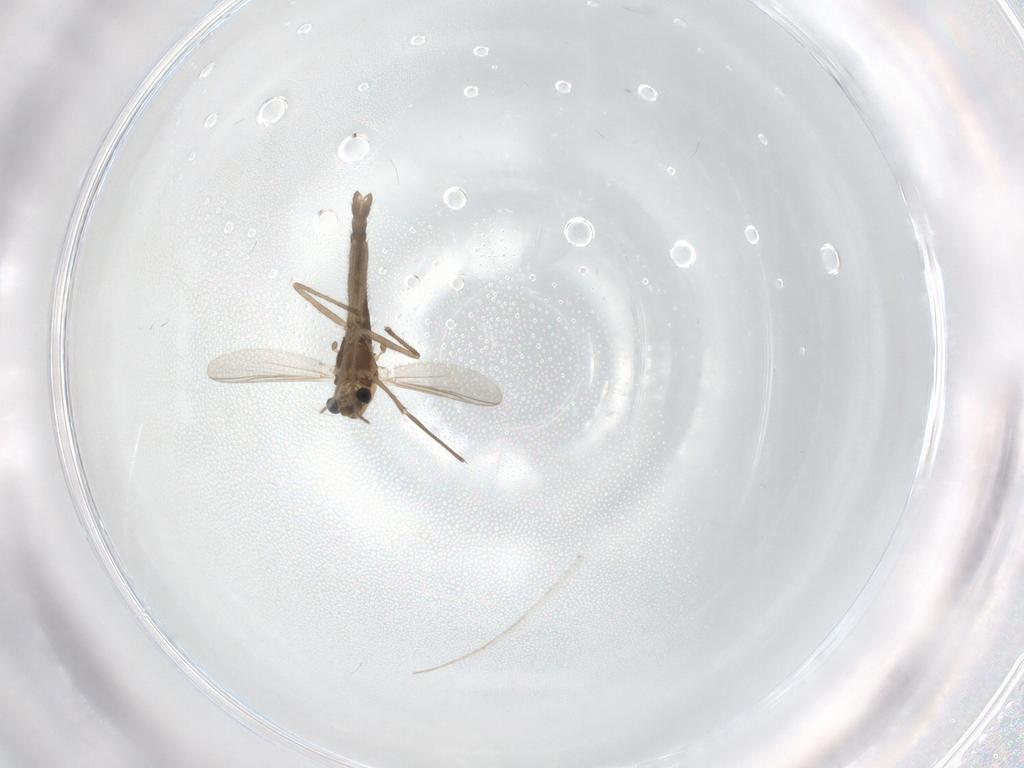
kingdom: Animalia
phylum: Arthropoda
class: Insecta
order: Diptera
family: Chironomidae
